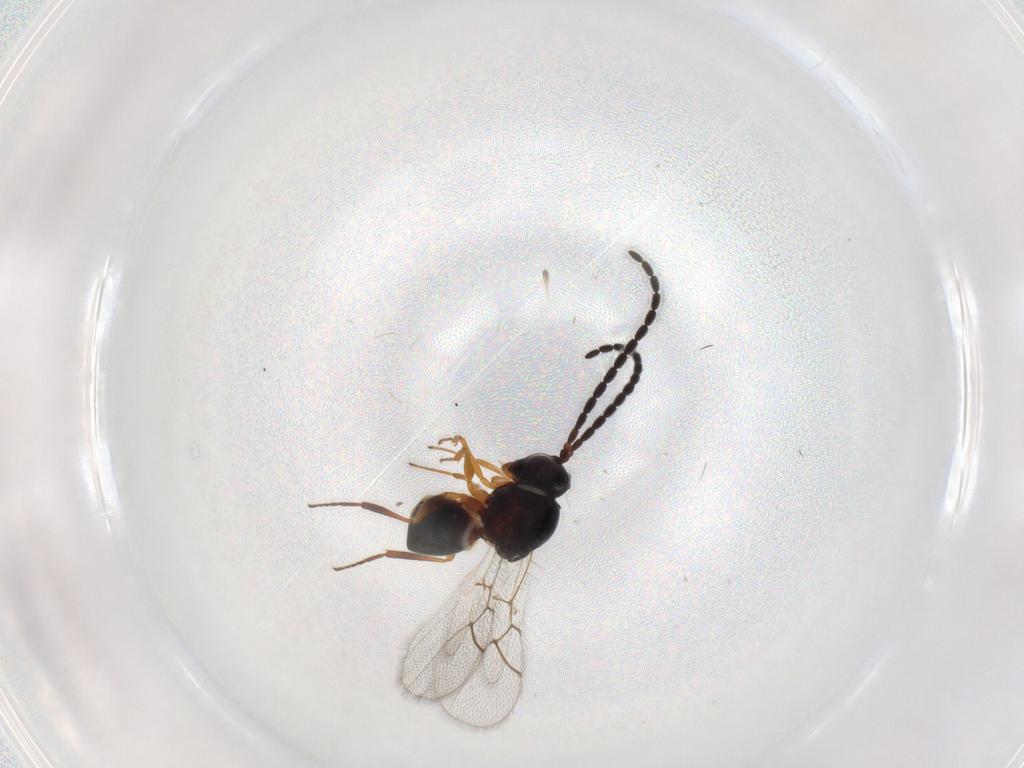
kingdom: Animalia
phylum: Arthropoda
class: Insecta
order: Hymenoptera
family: Figitidae
